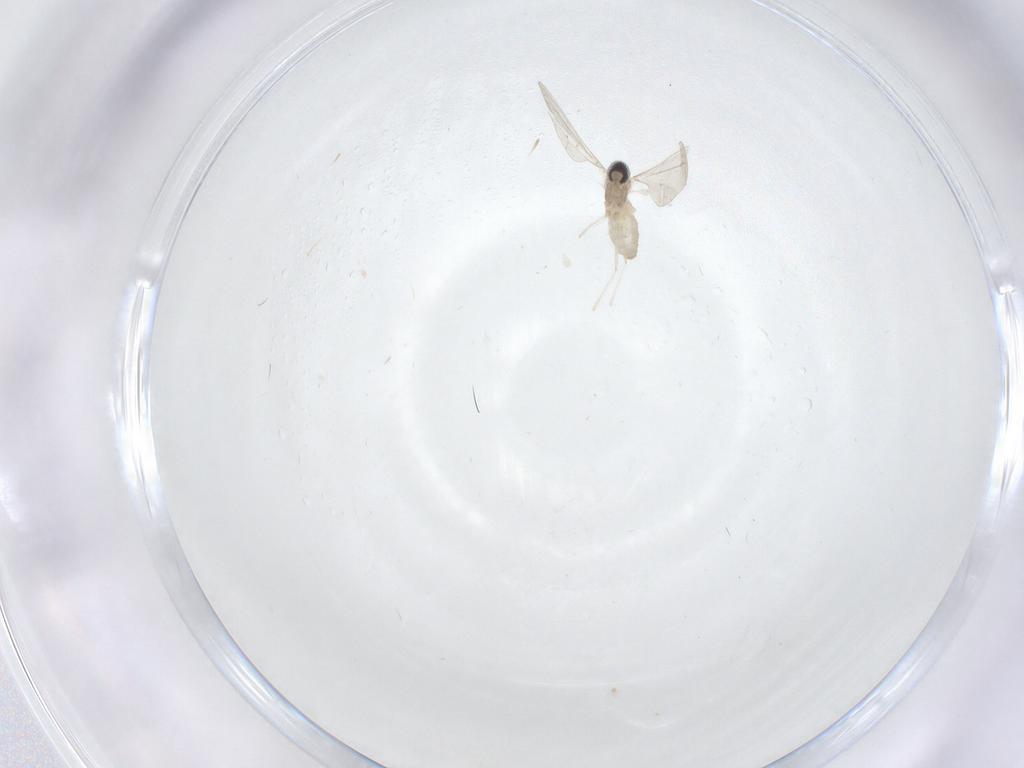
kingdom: Animalia
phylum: Arthropoda
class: Insecta
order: Diptera
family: Cecidomyiidae
